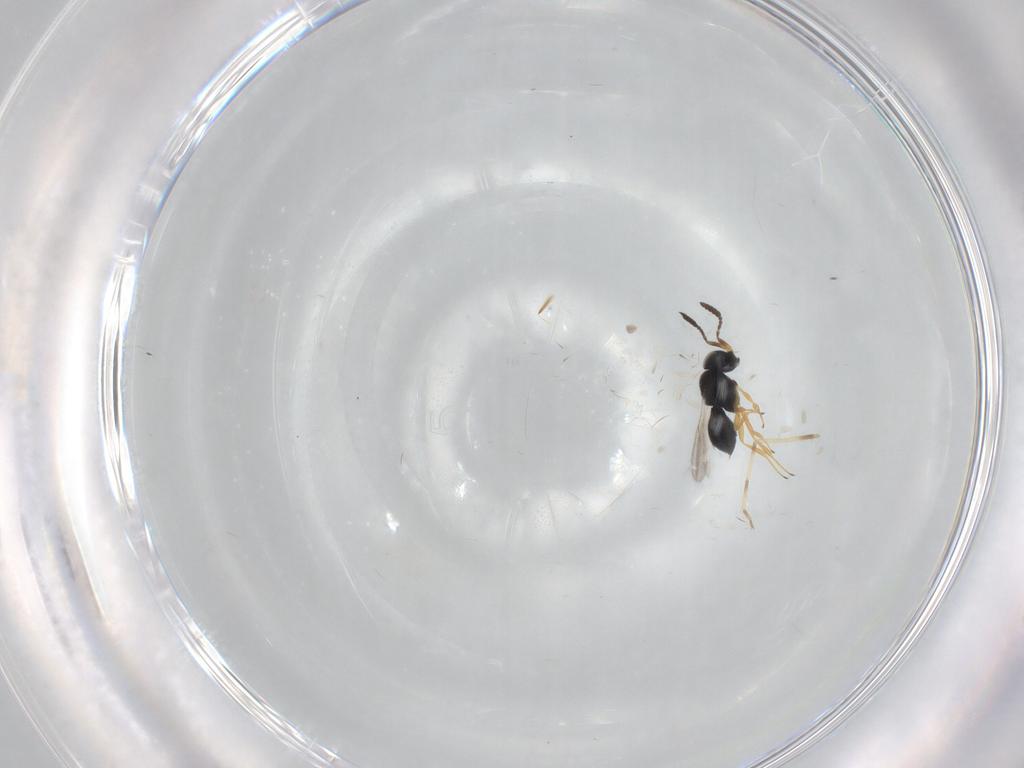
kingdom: Animalia
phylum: Arthropoda
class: Insecta
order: Hymenoptera
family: Scelionidae
